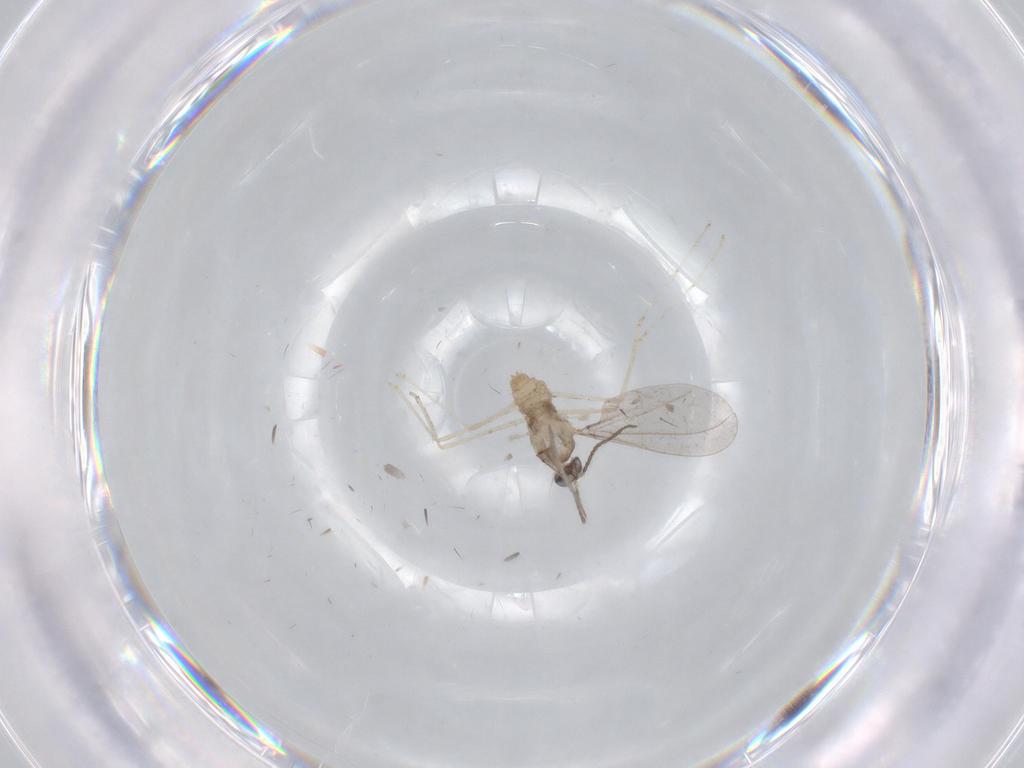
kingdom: Animalia
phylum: Arthropoda
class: Insecta
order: Diptera
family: Cecidomyiidae
